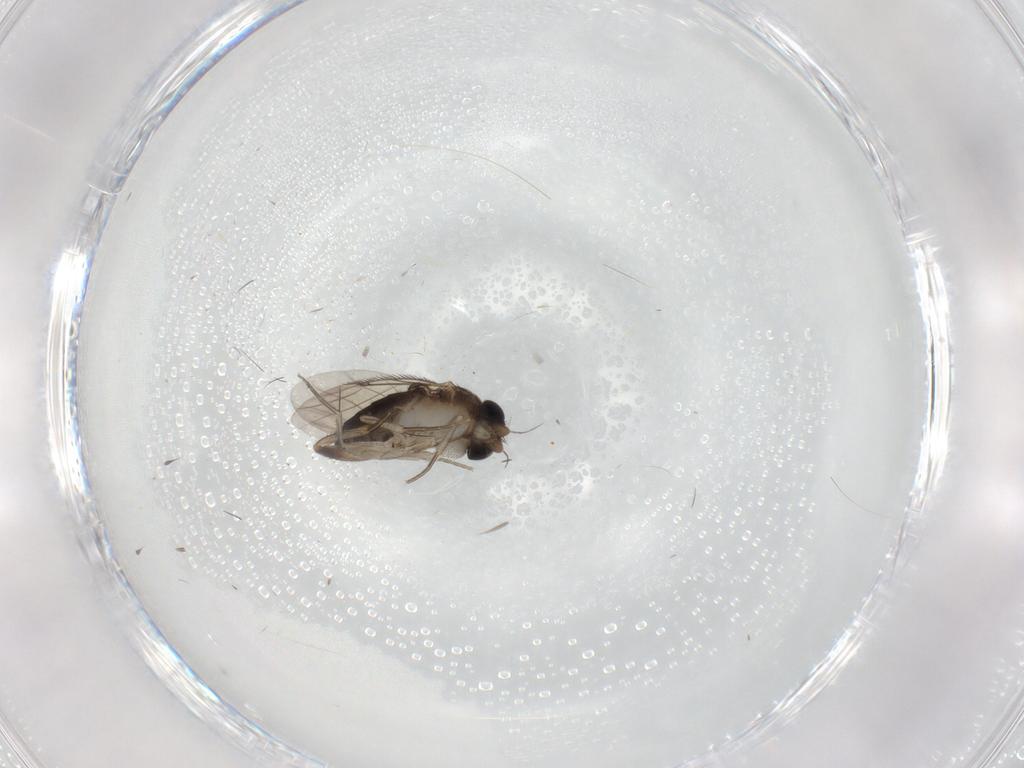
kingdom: Animalia
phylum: Arthropoda
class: Insecta
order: Diptera
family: Phoridae
